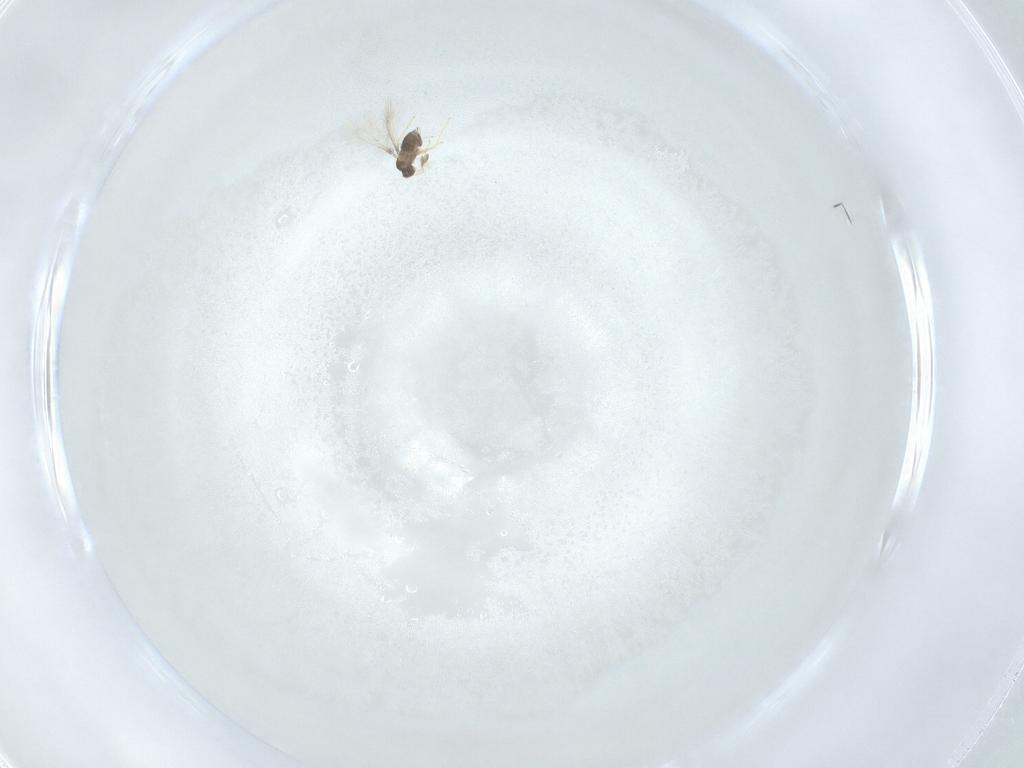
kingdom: Animalia
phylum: Arthropoda
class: Insecta
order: Hymenoptera
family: Mymaridae
